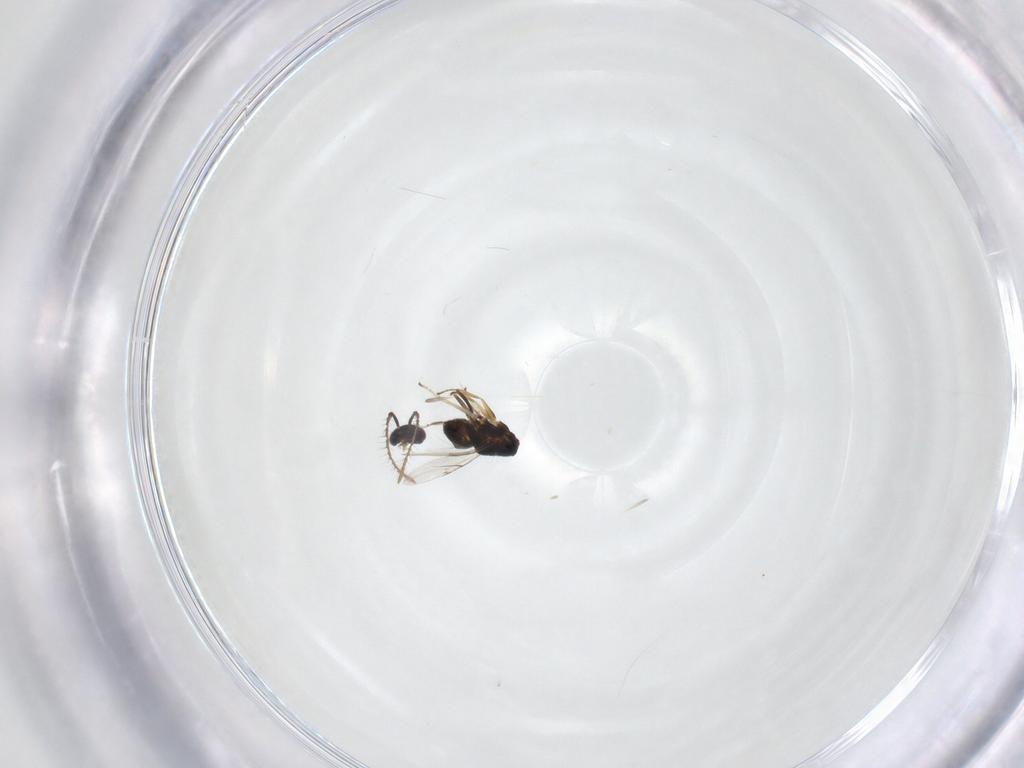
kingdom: Animalia
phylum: Arthropoda
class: Insecta
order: Hymenoptera
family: Encyrtidae
